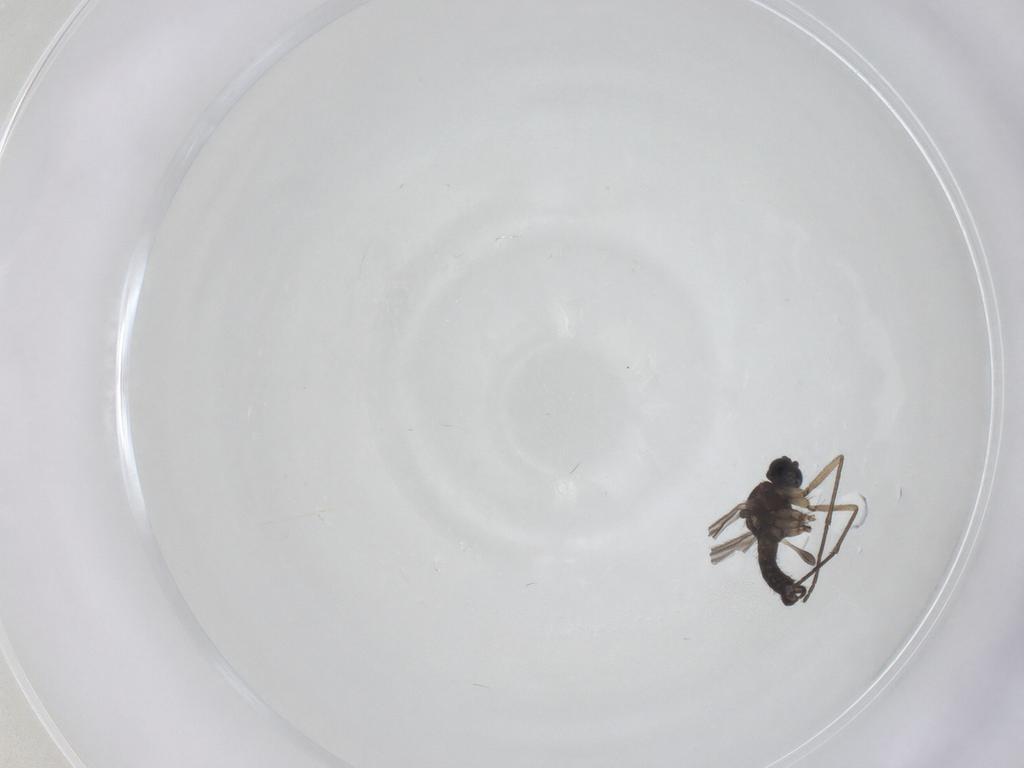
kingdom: Animalia
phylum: Arthropoda
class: Insecta
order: Diptera
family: Sciaridae
